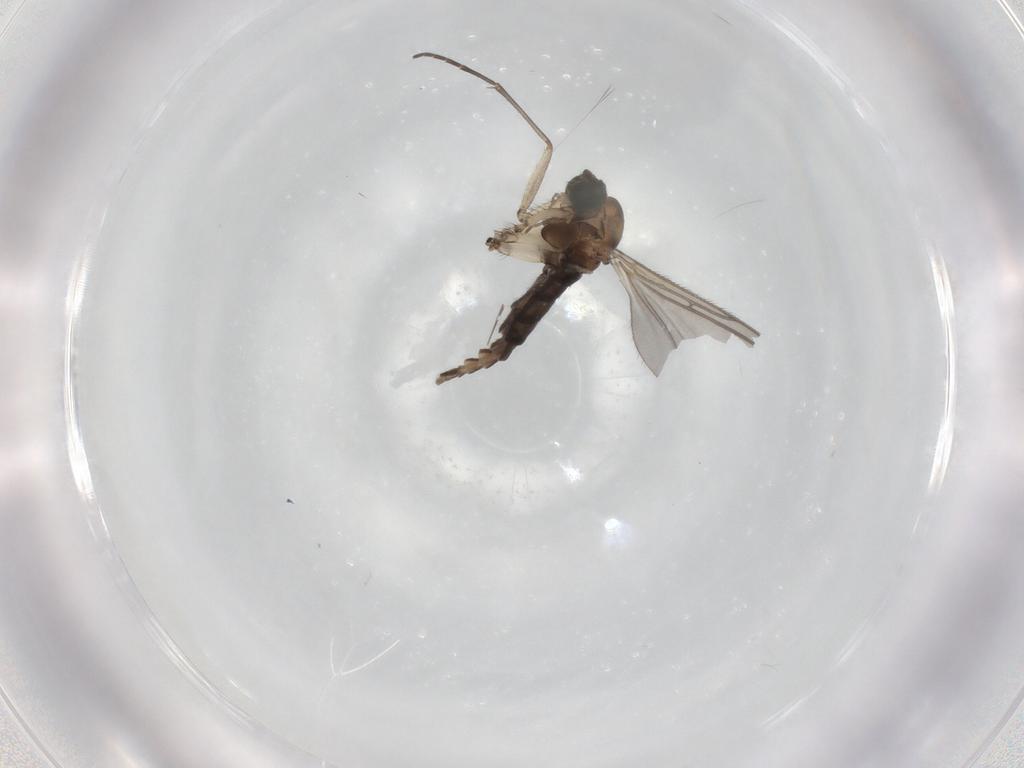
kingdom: Animalia
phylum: Arthropoda
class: Insecta
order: Diptera
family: Sciaridae
